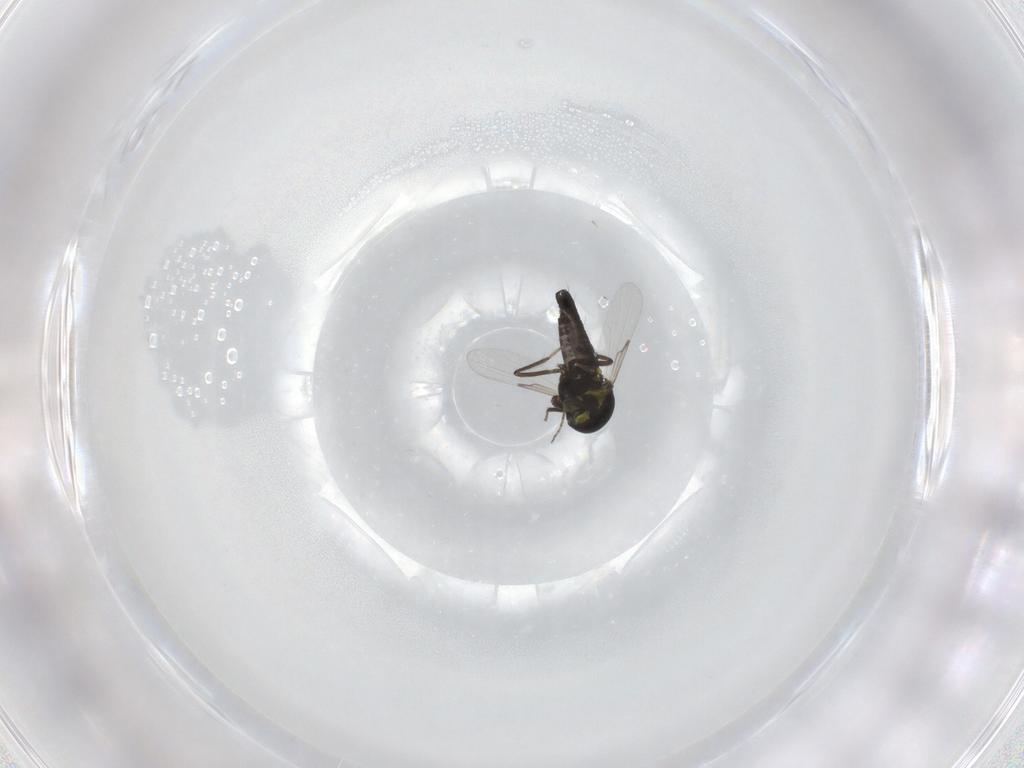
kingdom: Animalia
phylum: Arthropoda
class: Insecta
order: Diptera
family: Ceratopogonidae
